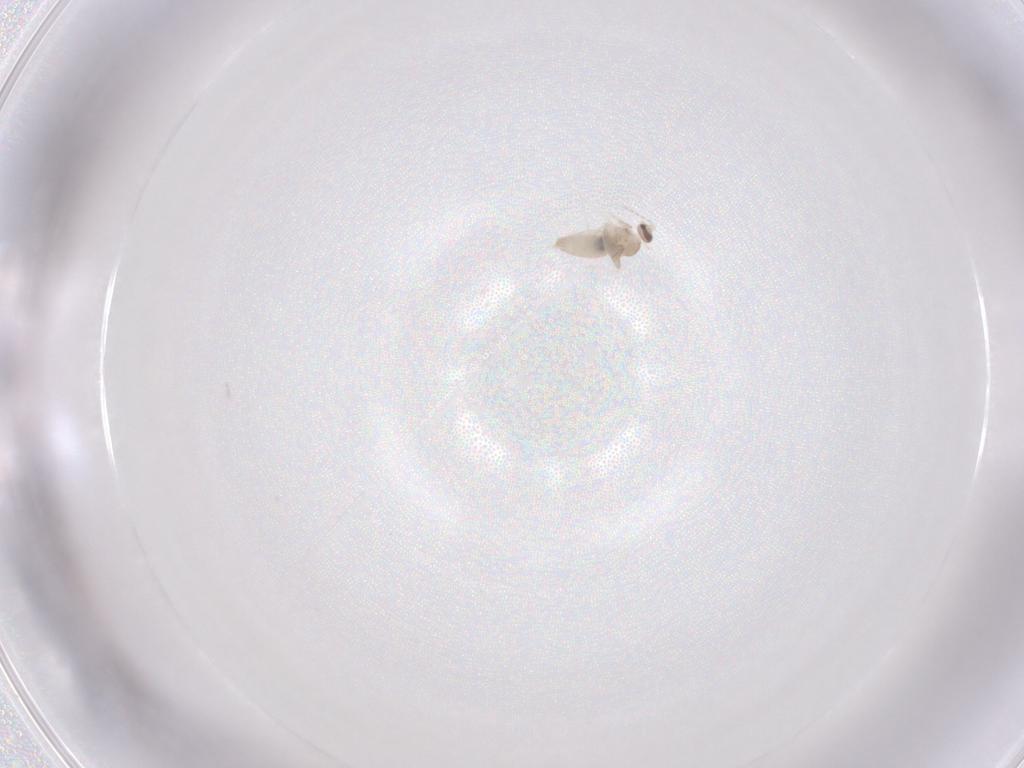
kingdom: Animalia
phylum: Arthropoda
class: Insecta
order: Diptera
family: Cecidomyiidae
